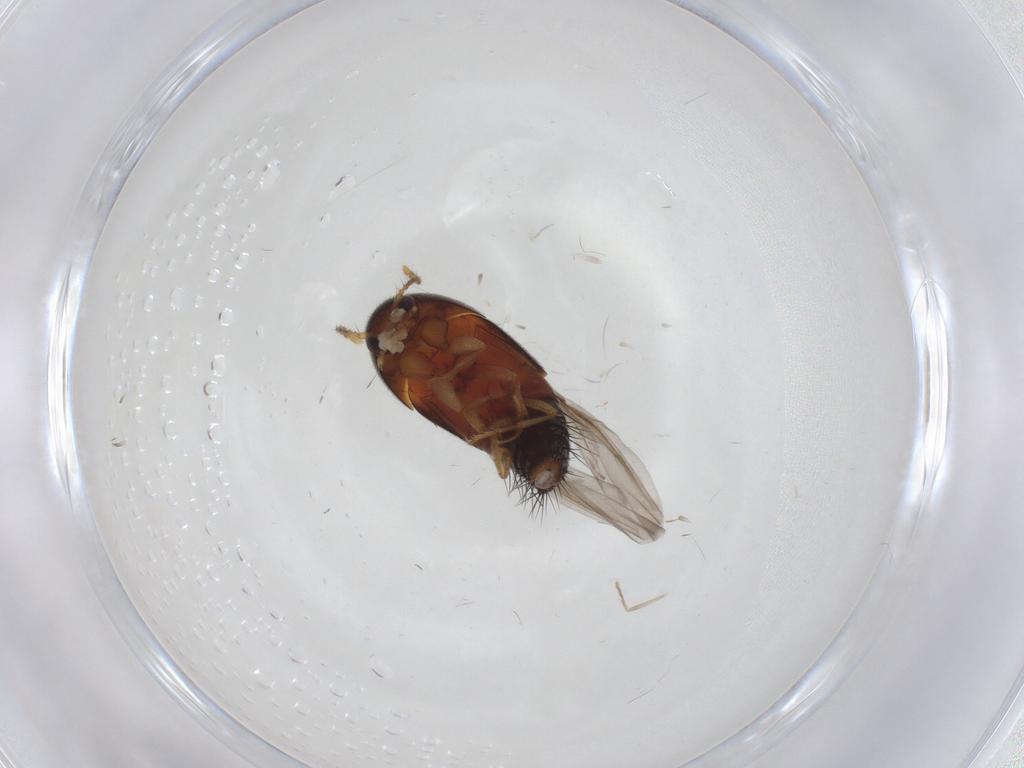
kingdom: Animalia
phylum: Arthropoda
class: Insecta
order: Coleoptera
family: Staphylinidae
